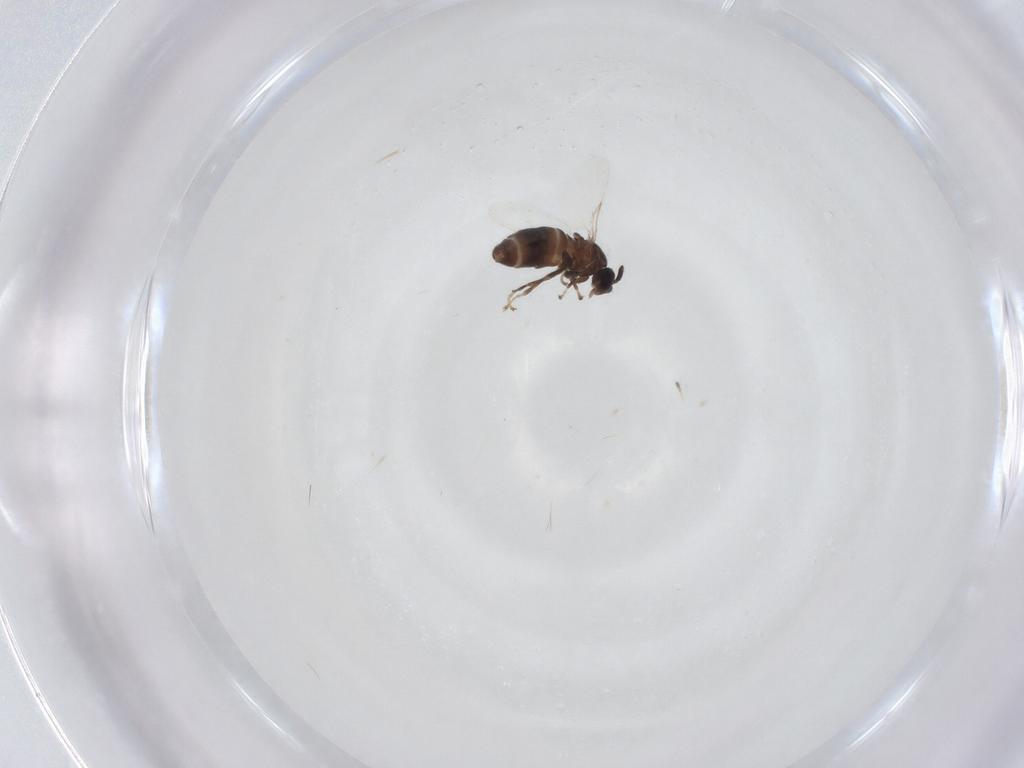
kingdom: Animalia
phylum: Arthropoda
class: Insecta
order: Diptera
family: Scatopsidae
